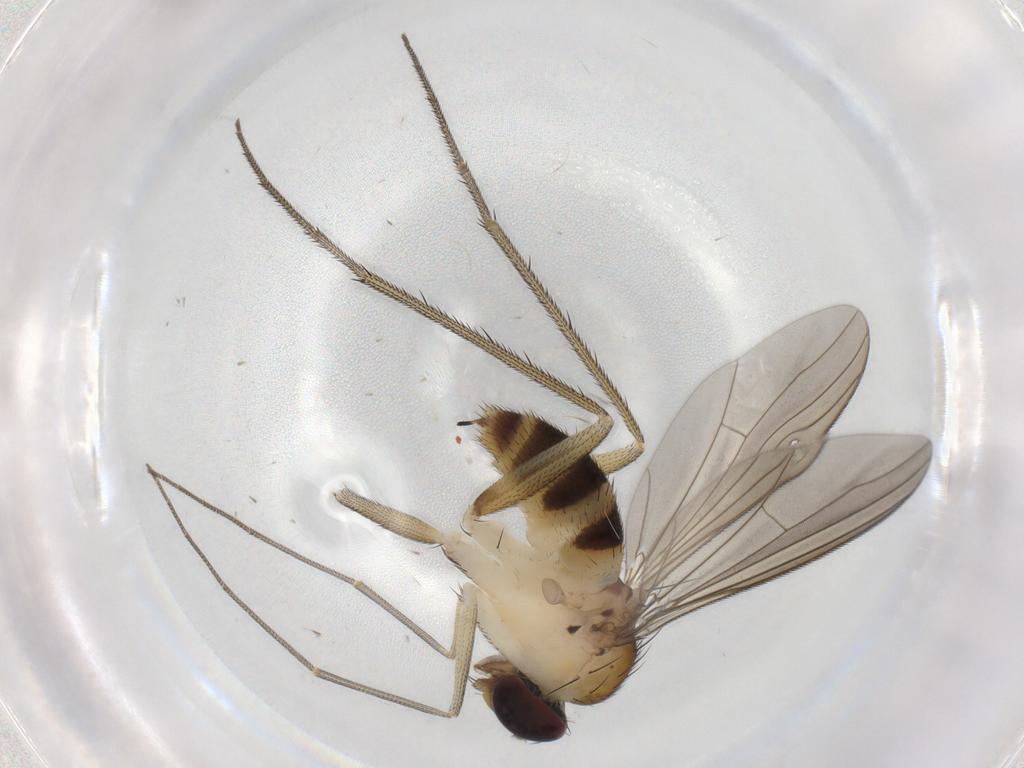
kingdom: Animalia
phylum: Arthropoda
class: Insecta
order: Diptera
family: Dolichopodidae
